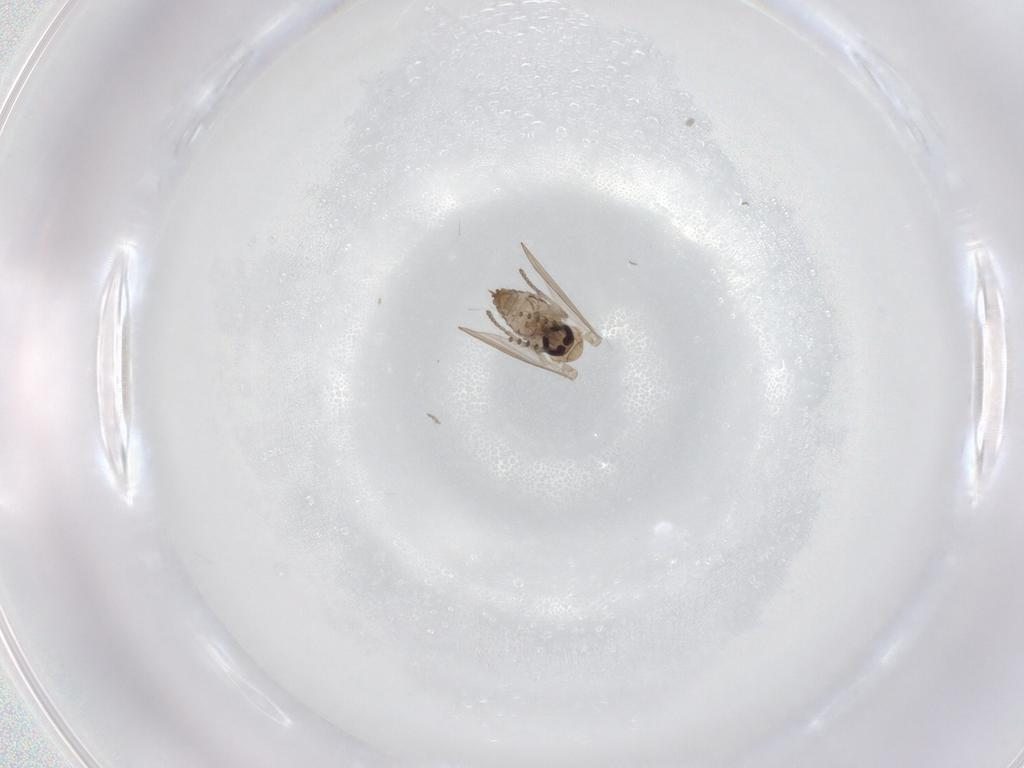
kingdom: Animalia
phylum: Arthropoda
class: Insecta
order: Diptera
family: Psychodidae
